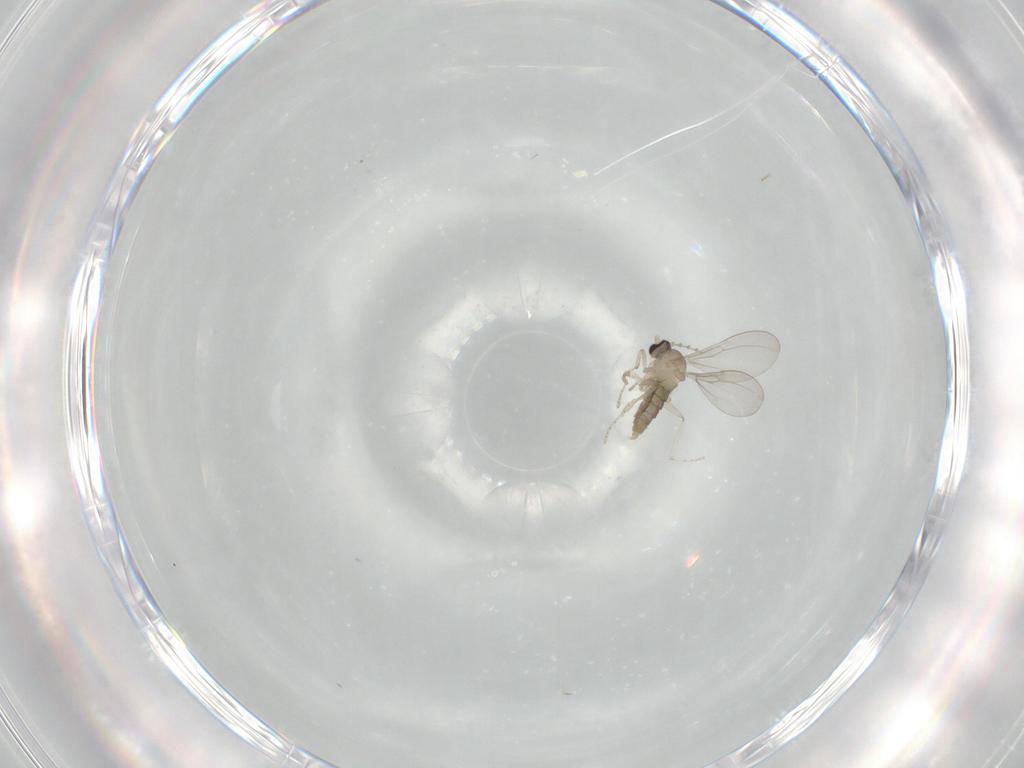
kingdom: Animalia
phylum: Arthropoda
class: Insecta
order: Diptera
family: Cecidomyiidae
